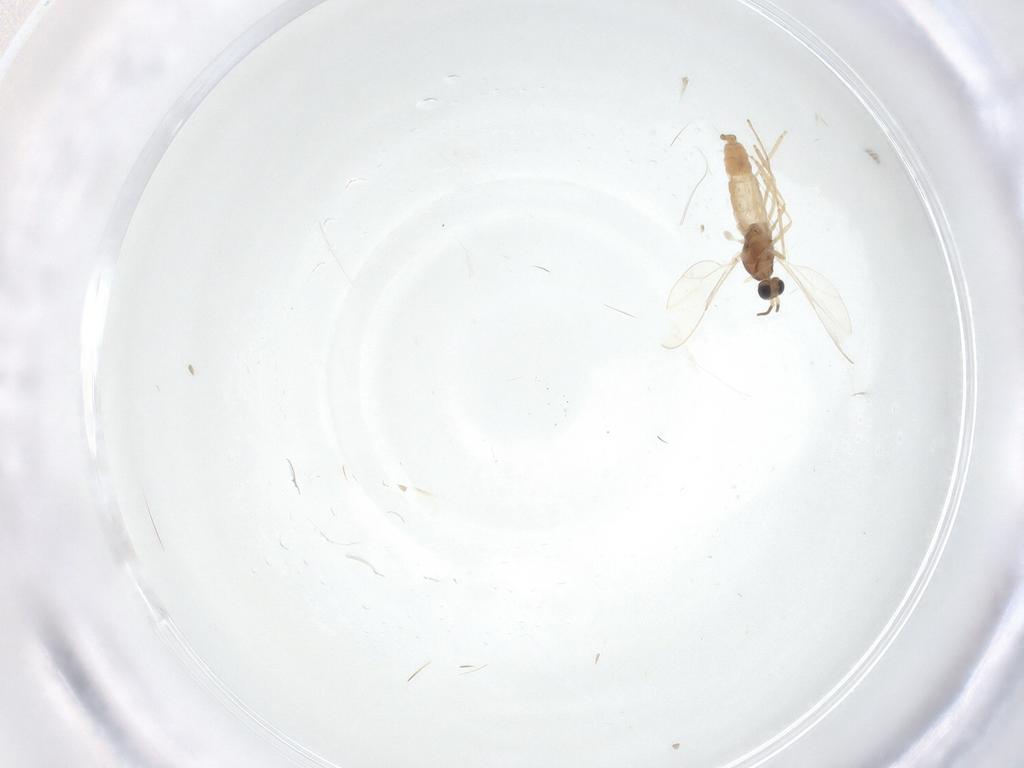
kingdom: Animalia
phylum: Arthropoda
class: Insecta
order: Diptera
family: Cecidomyiidae
